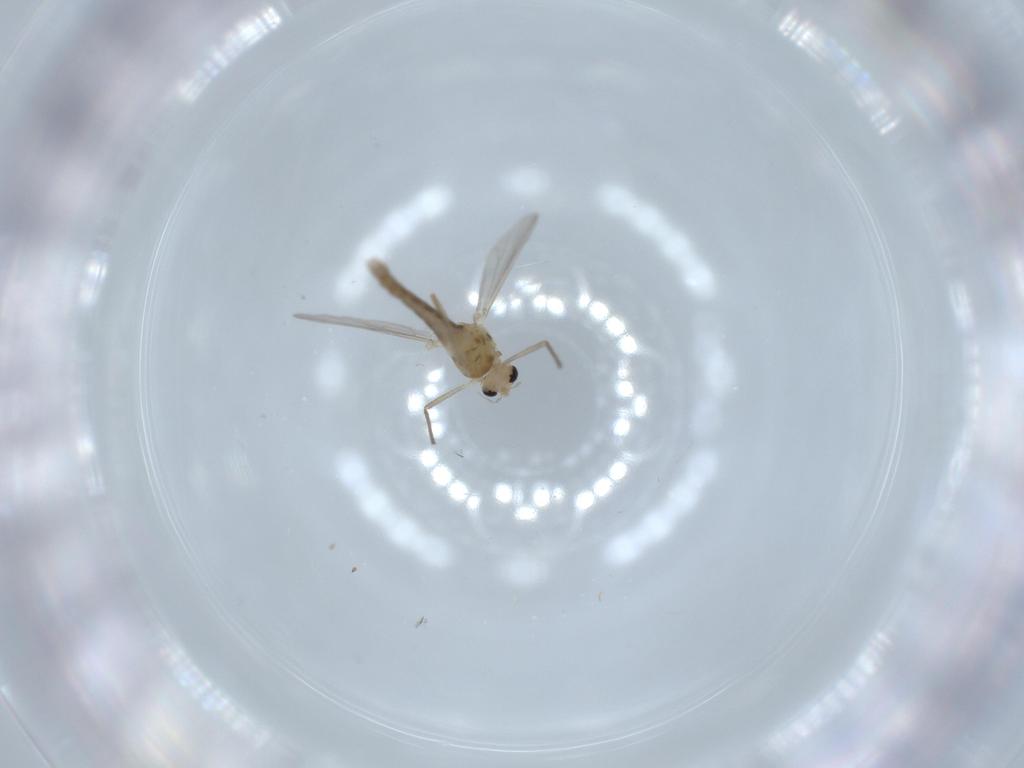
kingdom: Animalia
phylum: Arthropoda
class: Insecta
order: Diptera
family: Chironomidae
